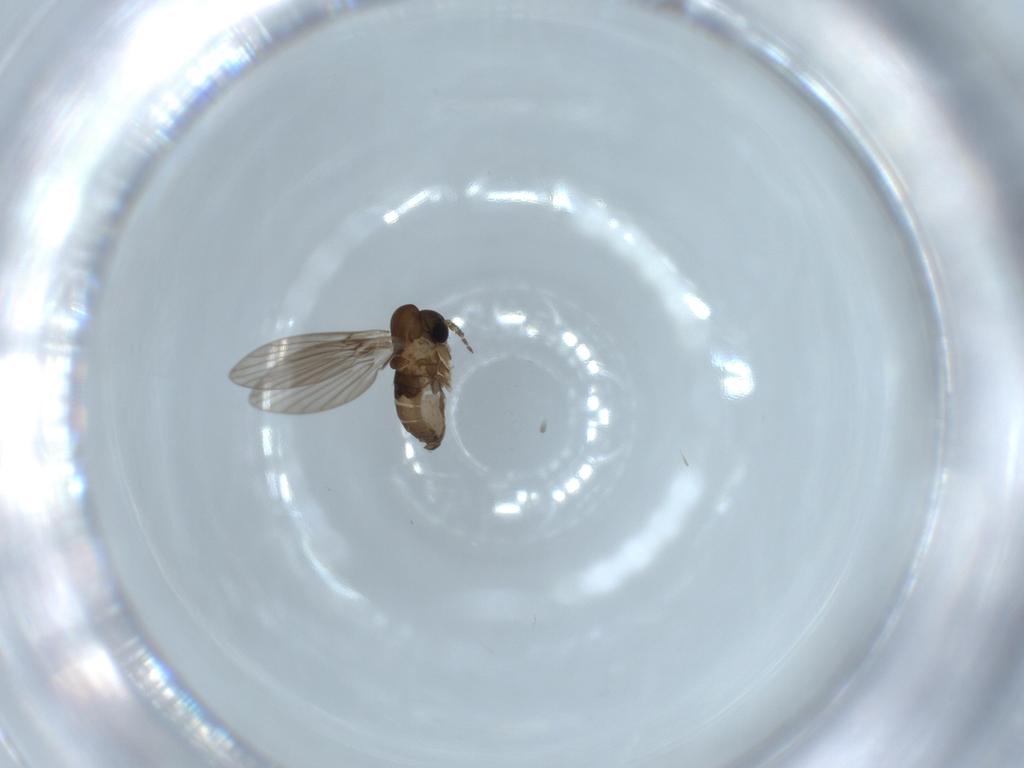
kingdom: Animalia
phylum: Arthropoda
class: Insecta
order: Diptera
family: Psychodidae
